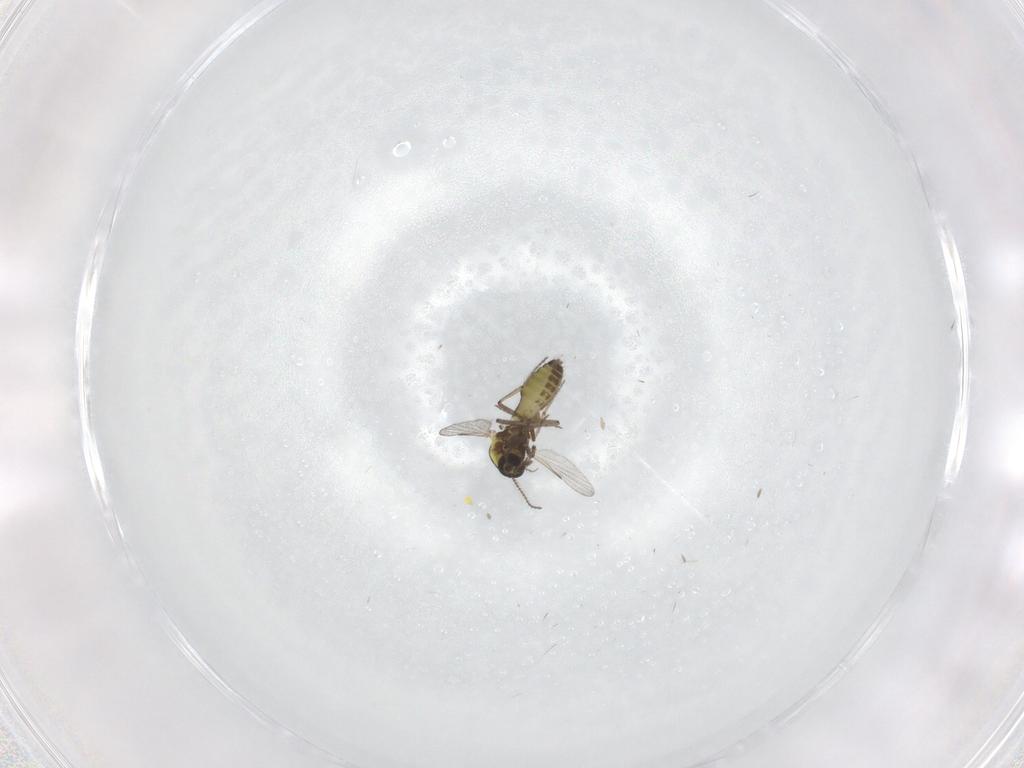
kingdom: Animalia
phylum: Arthropoda
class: Insecta
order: Diptera
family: Ceratopogonidae
